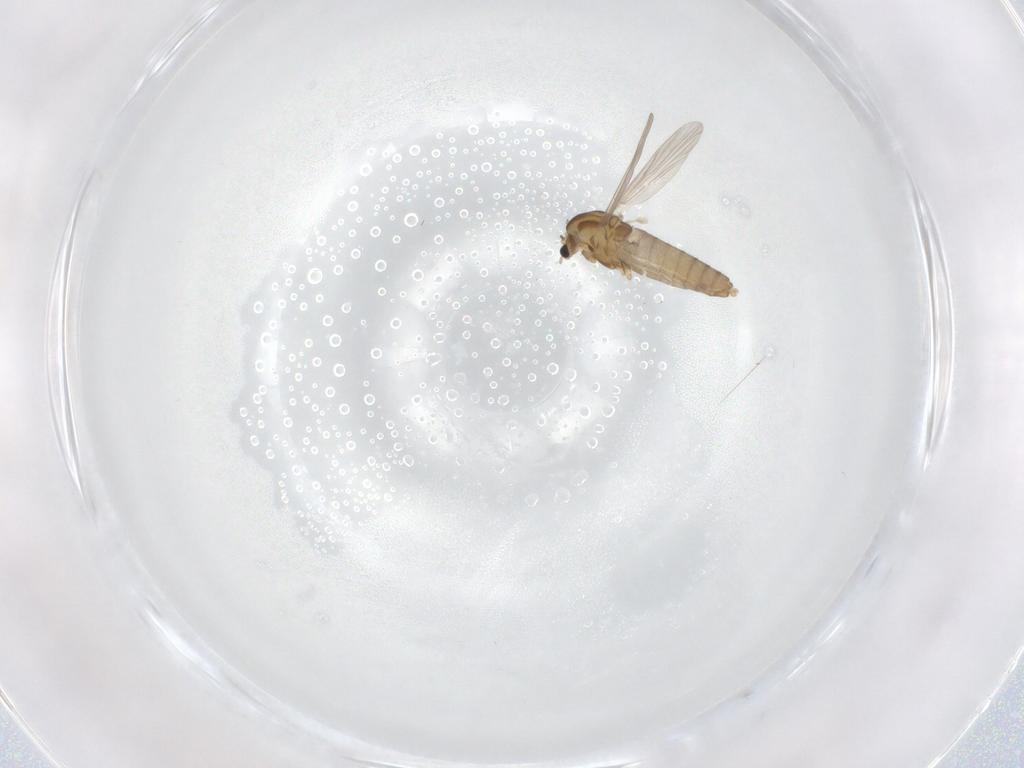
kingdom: Animalia
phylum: Arthropoda
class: Insecta
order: Diptera
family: Chironomidae
